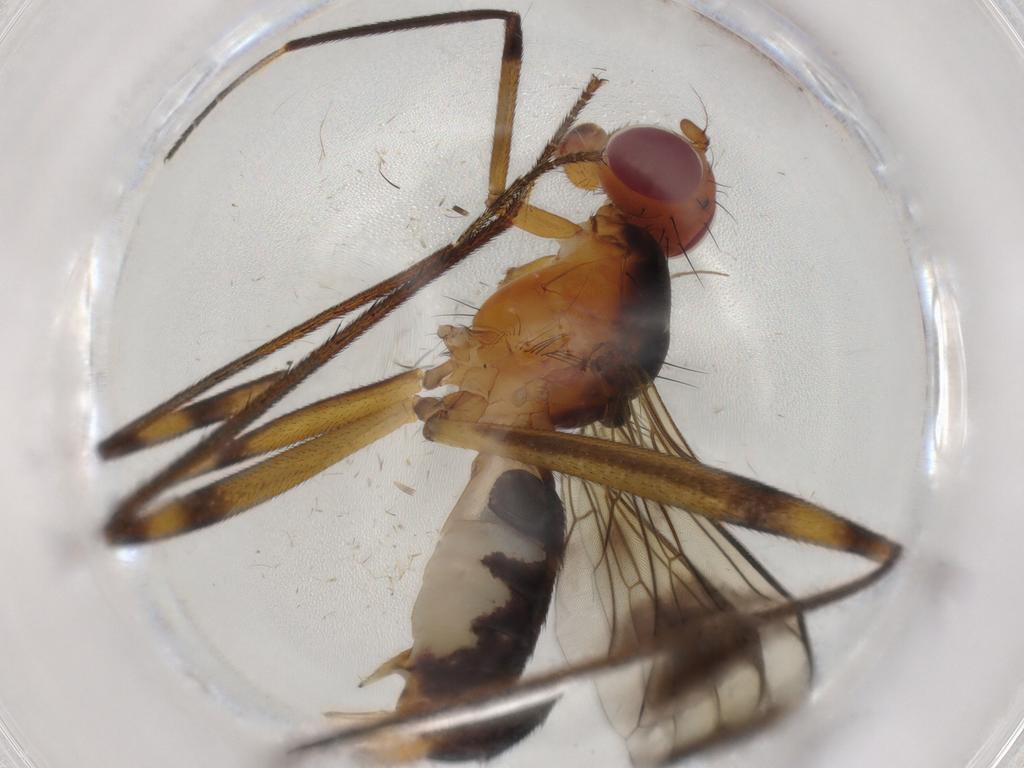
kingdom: Animalia
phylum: Arthropoda
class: Insecta
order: Diptera
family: Micropezidae
